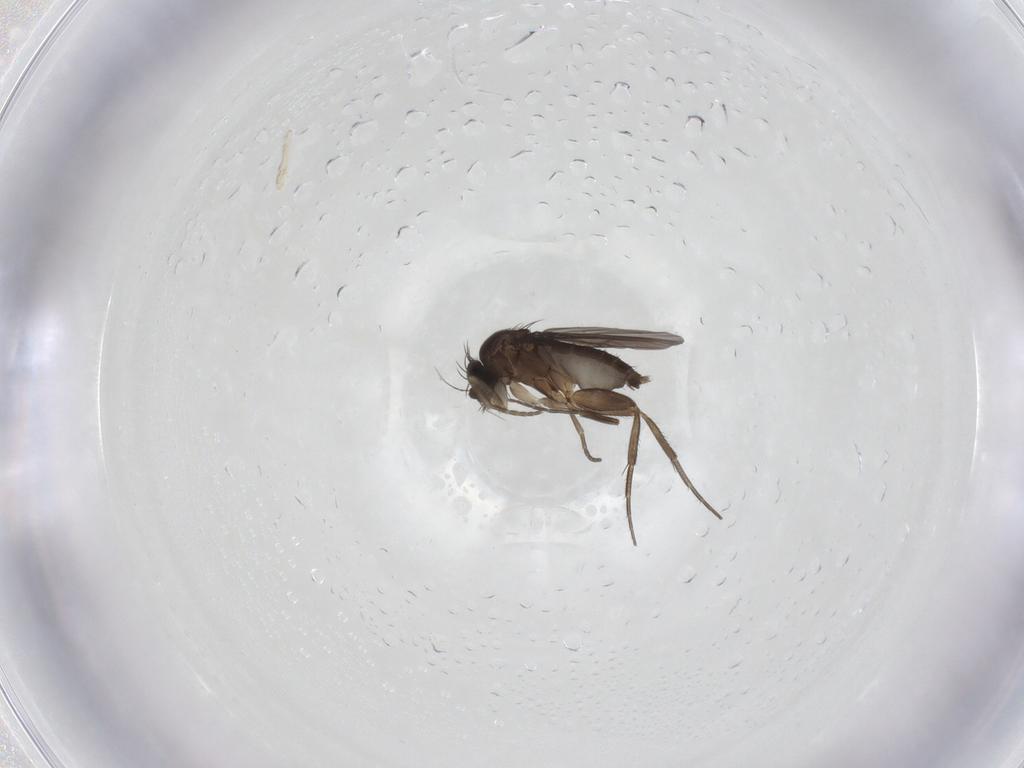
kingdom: Animalia
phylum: Arthropoda
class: Insecta
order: Diptera
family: Phoridae
